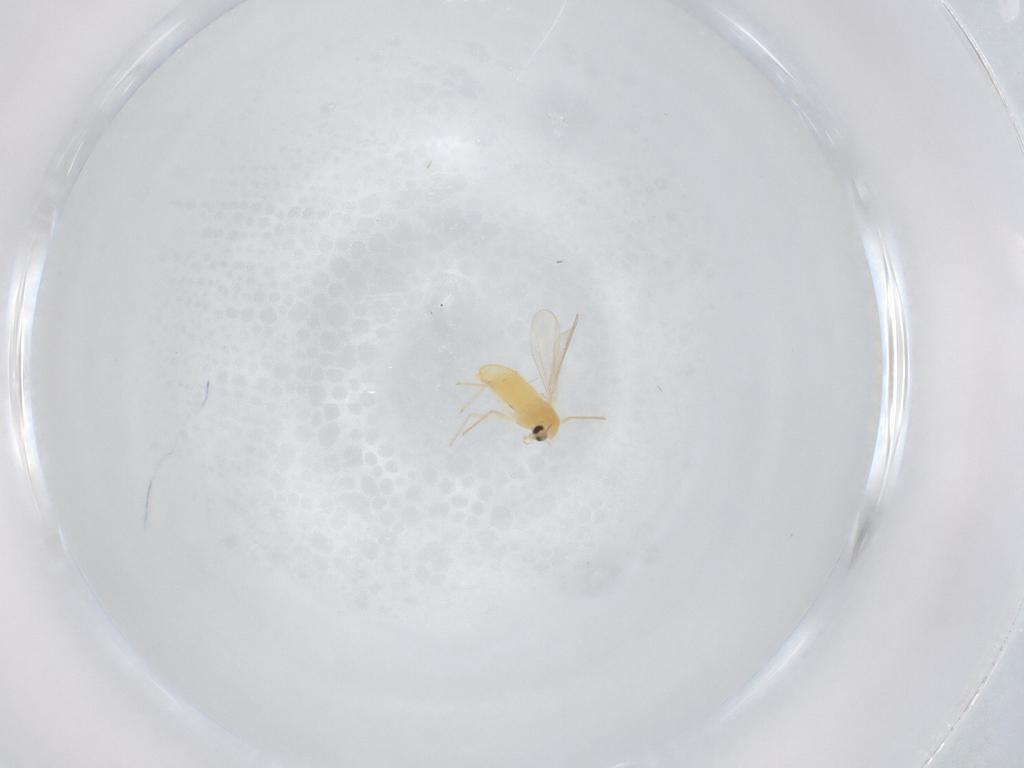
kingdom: Animalia
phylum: Arthropoda
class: Insecta
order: Diptera
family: Chironomidae
